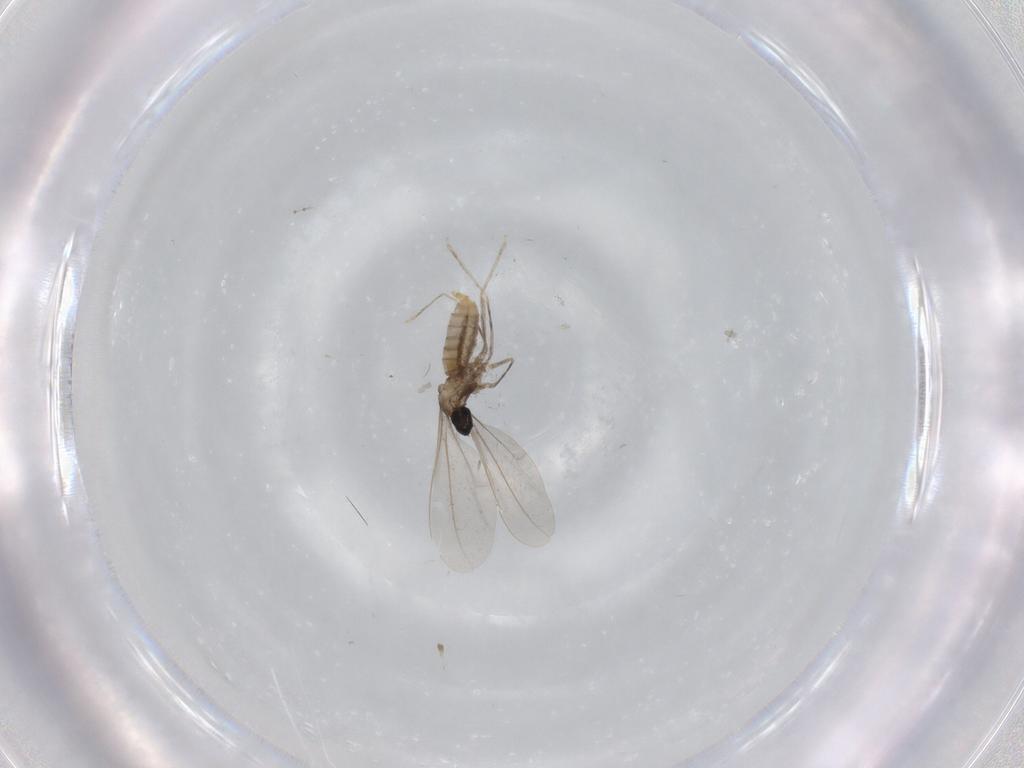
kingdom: Animalia
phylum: Arthropoda
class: Insecta
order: Diptera
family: Cecidomyiidae
